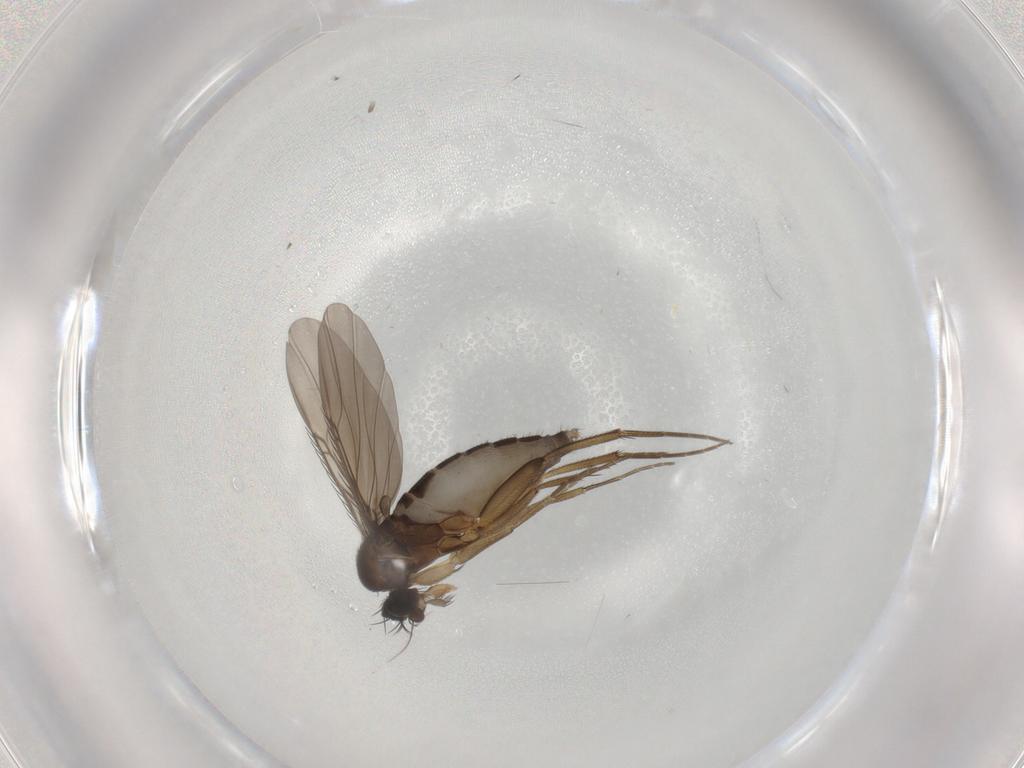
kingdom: Animalia
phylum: Arthropoda
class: Insecta
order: Diptera
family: Phoridae
